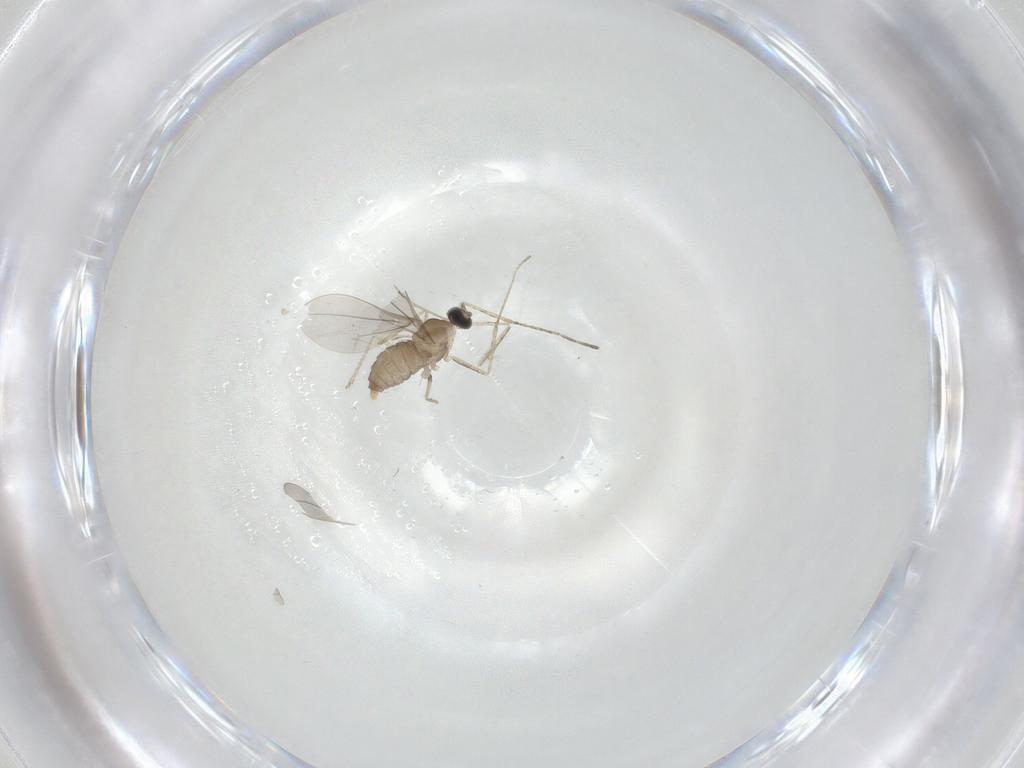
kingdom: Animalia
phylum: Arthropoda
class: Insecta
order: Diptera
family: Cecidomyiidae
